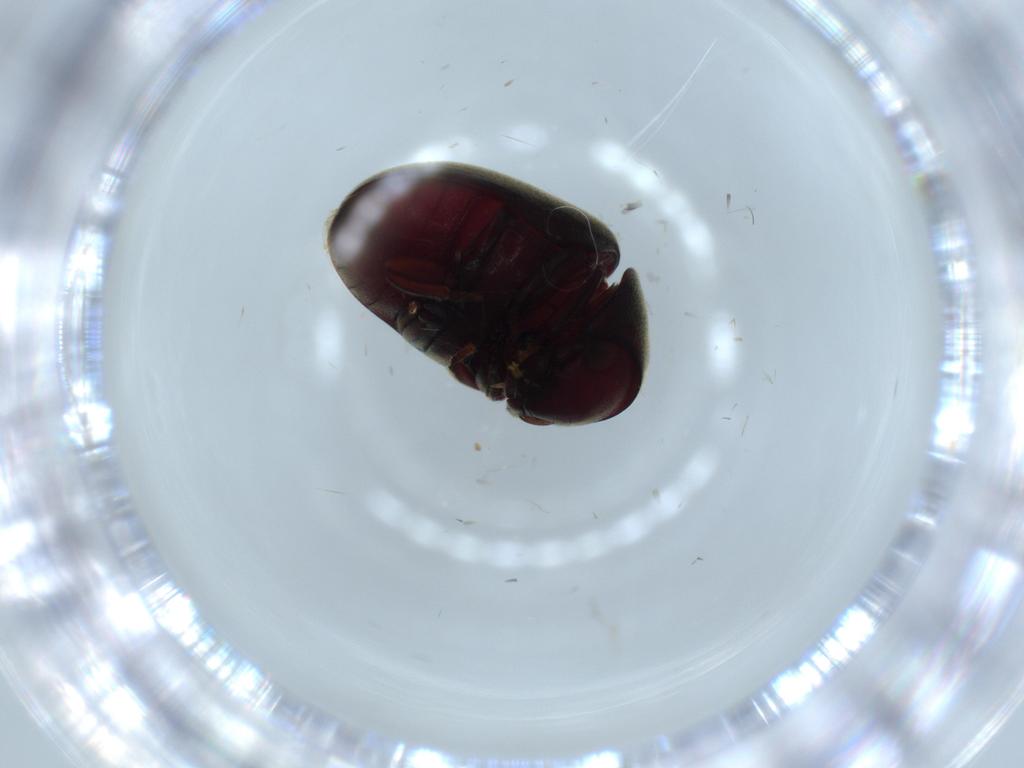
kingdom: Animalia
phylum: Arthropoda
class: Insecta
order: Coleoptera
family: Ptinidae
